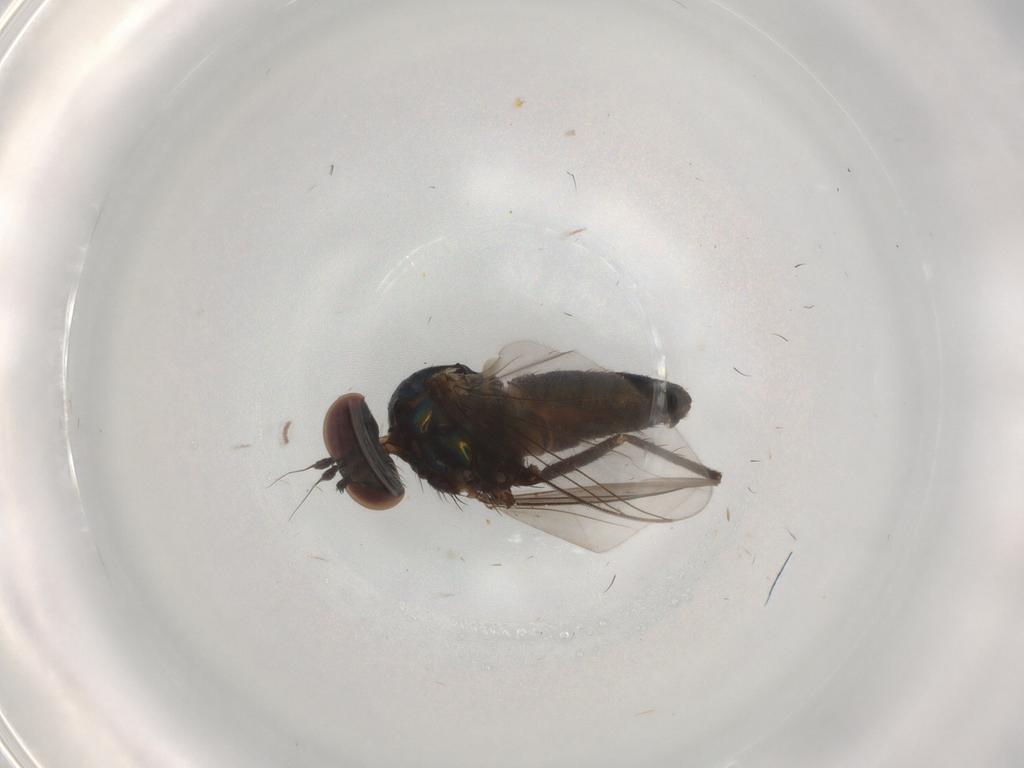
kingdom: Animalia
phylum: Arthropoda
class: Insecta
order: Diptera
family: Dolichopodidae
